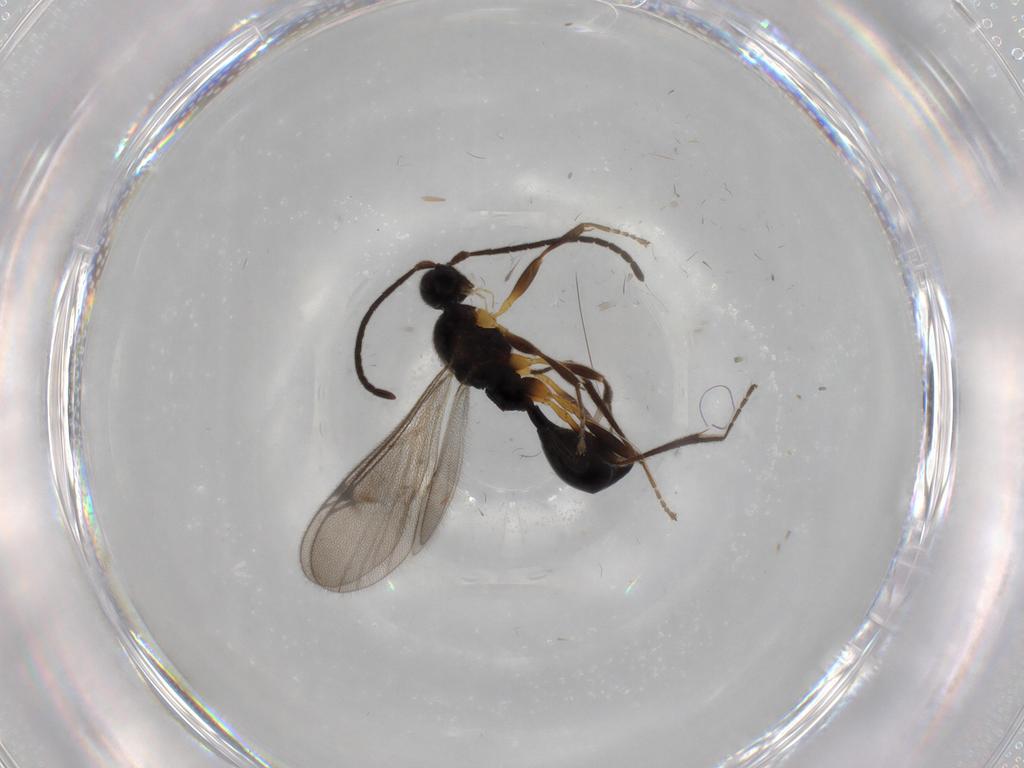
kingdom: Animalia
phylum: Arthropoda
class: Insecta
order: Hymenoptera
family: Proctotrupidae
